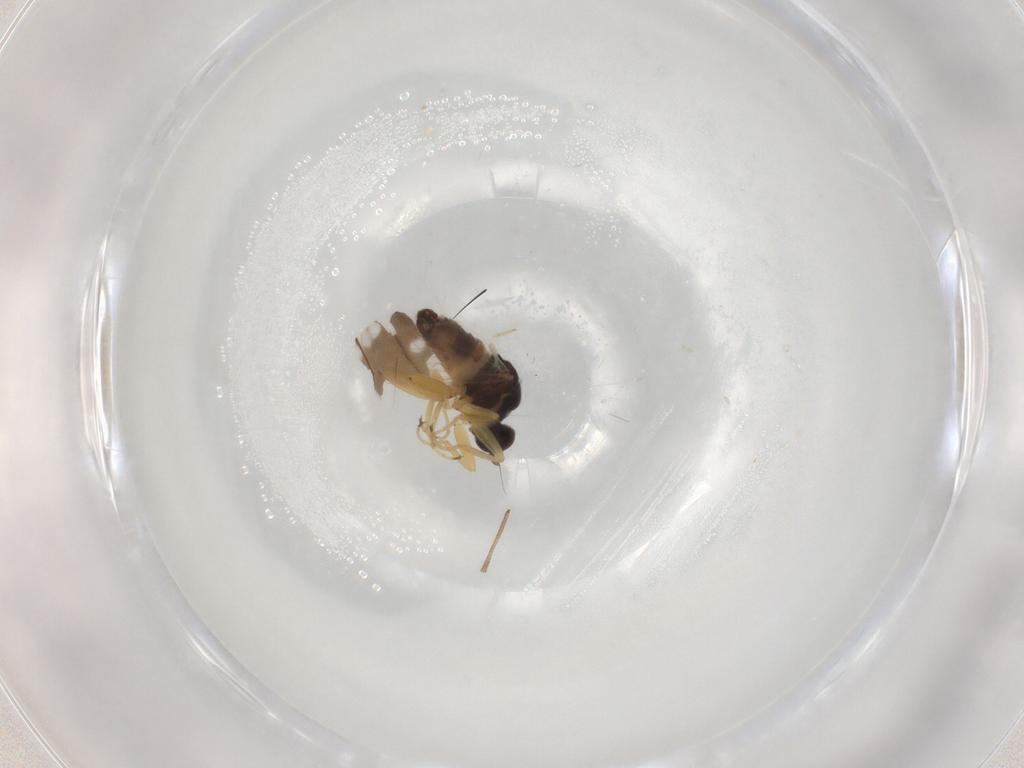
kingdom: Animalia
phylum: Arthropoda
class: Insecta
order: Diptera
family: Hybotidae
